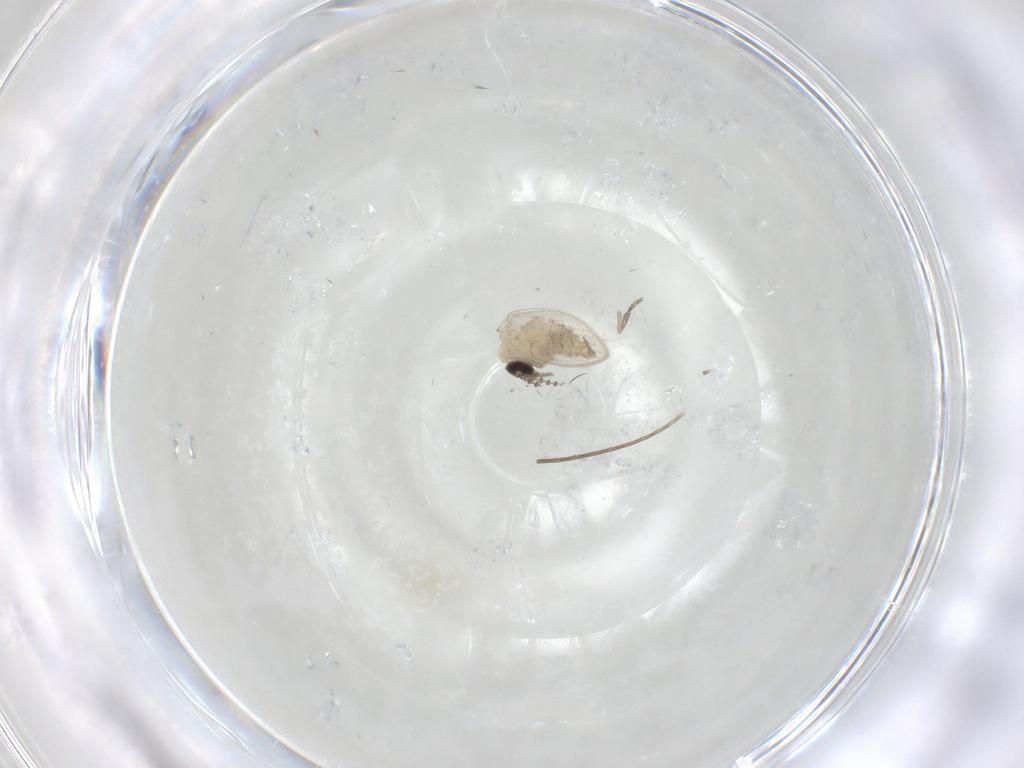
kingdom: Animalia
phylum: Arthropoda
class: Insecta
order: Diptera
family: Psychodidae
